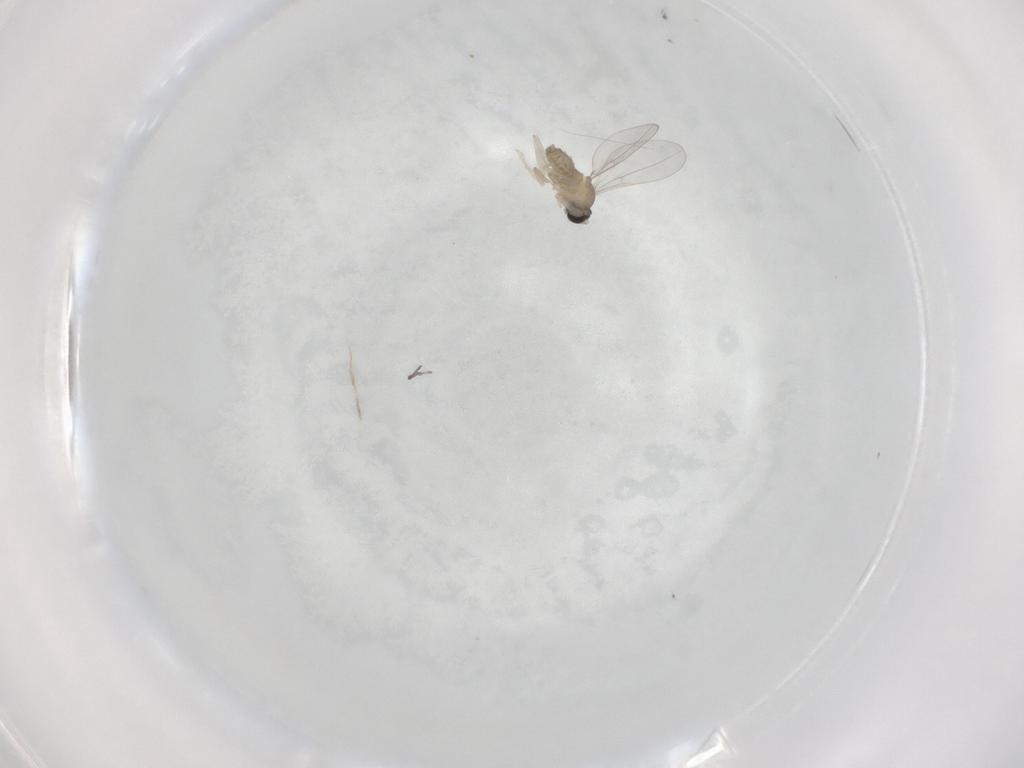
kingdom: Animalia
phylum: Arthropoda
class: Insecta
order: Diptera
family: Cecidomyiidae
